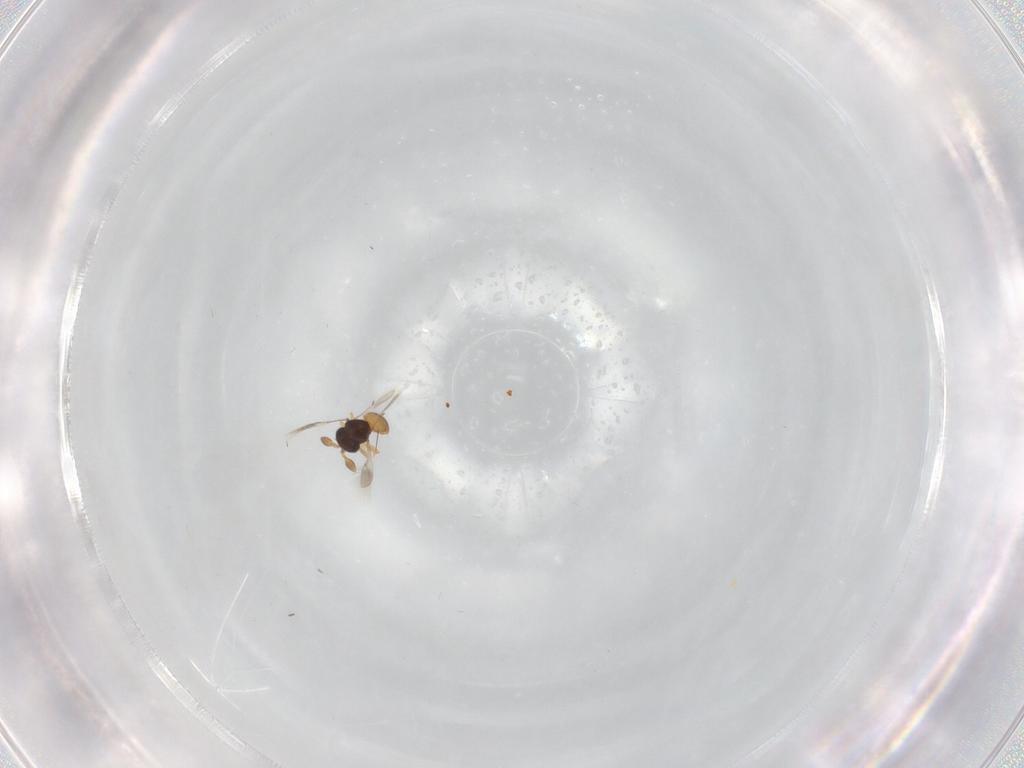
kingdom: Animalia
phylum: Arthropoda
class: Insecta
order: Hymenoptera
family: Scelionidae
